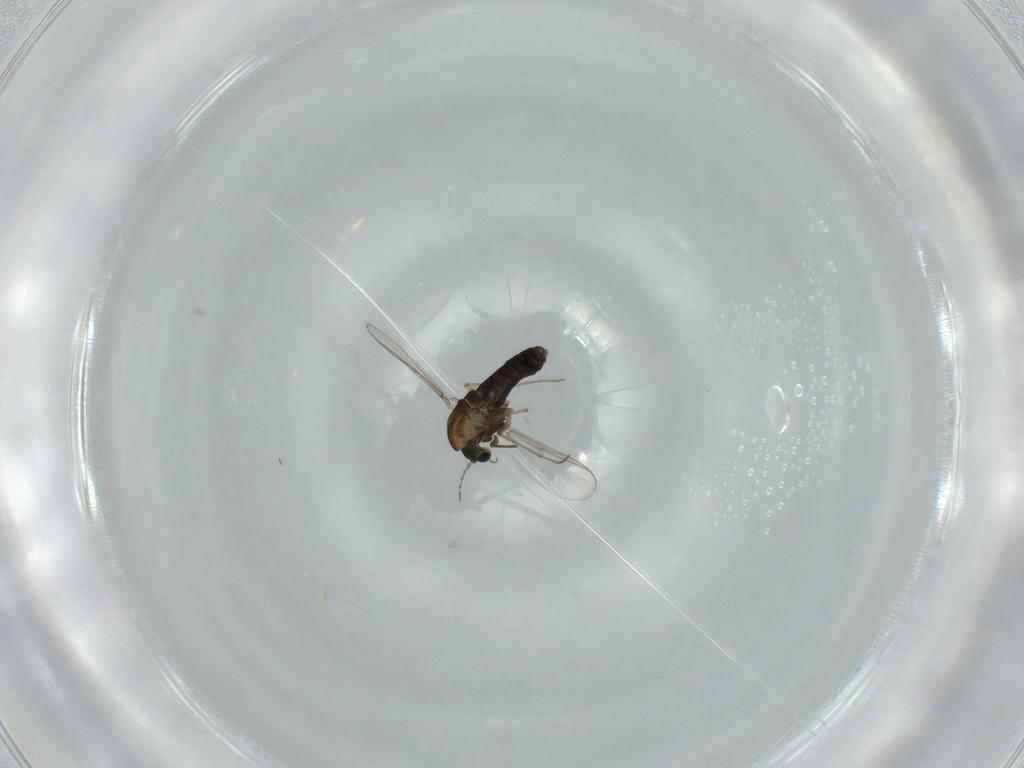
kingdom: Animalia
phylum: Arthropoda
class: Insecta
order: Diptera
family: Chironomidae
